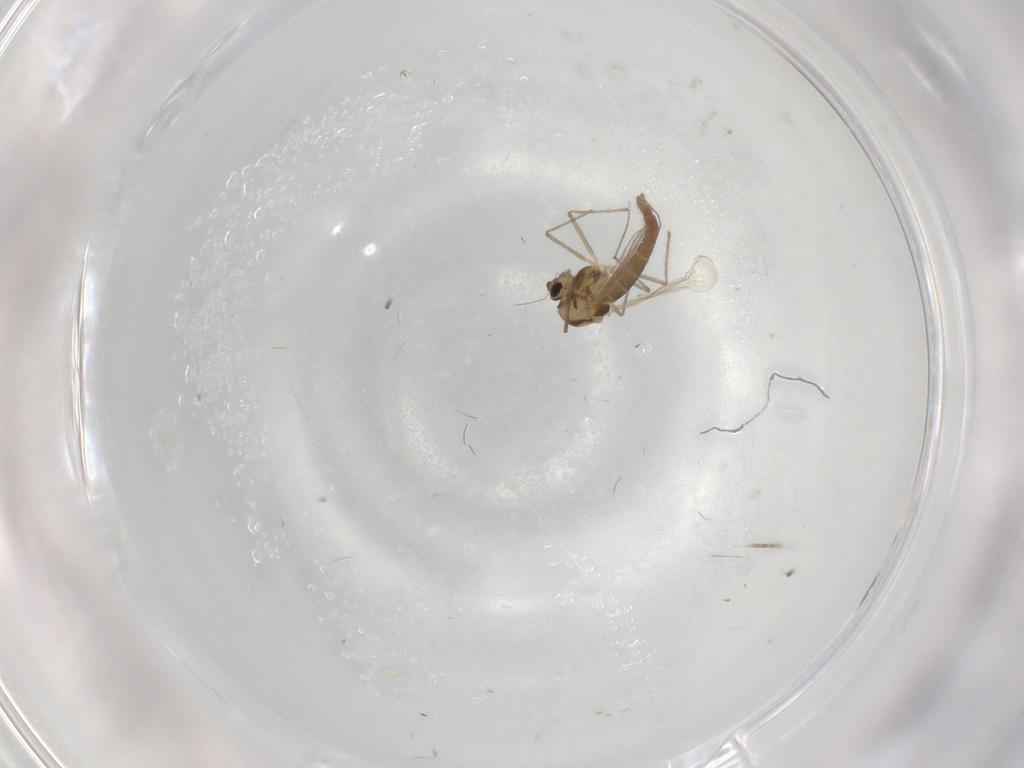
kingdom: Animalia
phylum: Arthropoda
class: Insecta
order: Diptera
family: Chironomidae
